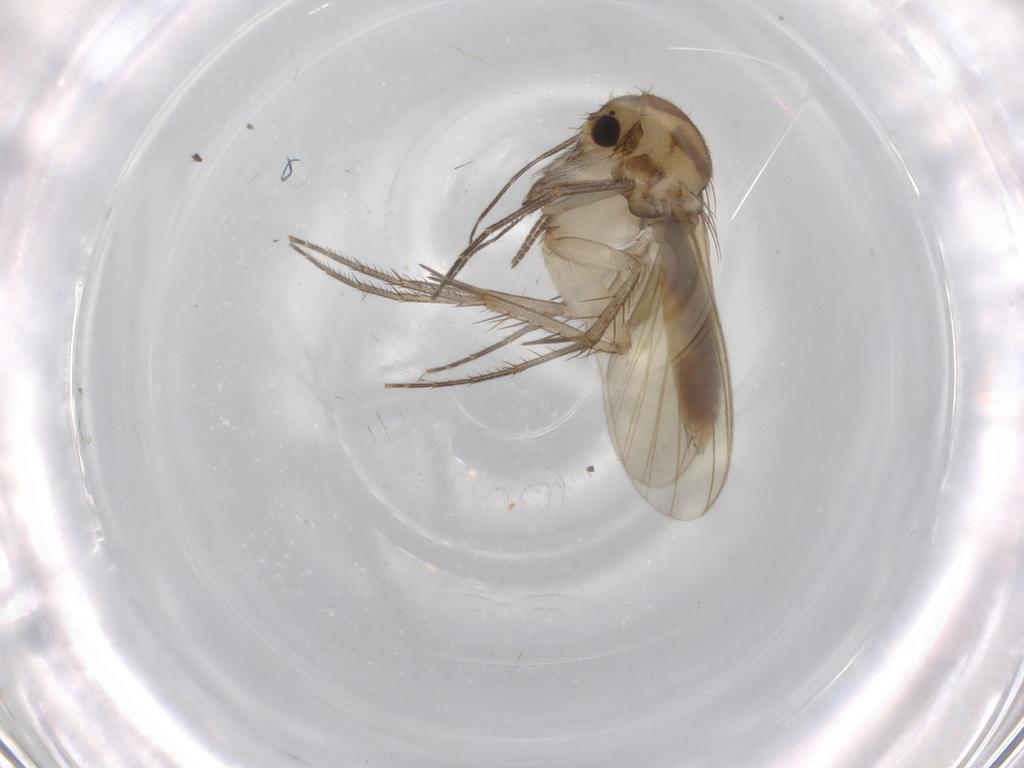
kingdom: Animalia
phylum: Arthropoda
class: Insecta
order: Diptera
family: Mycetophilidae
